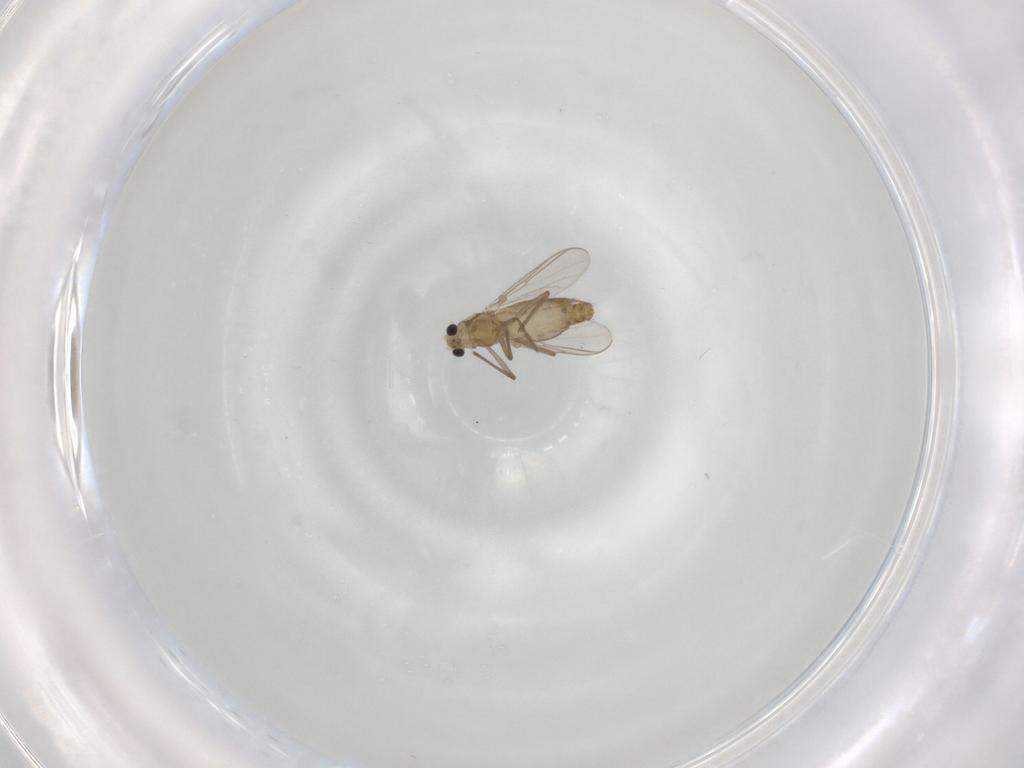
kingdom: Animalia
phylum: Arthropoda
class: Insecta
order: Diptera
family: Chironomidae
